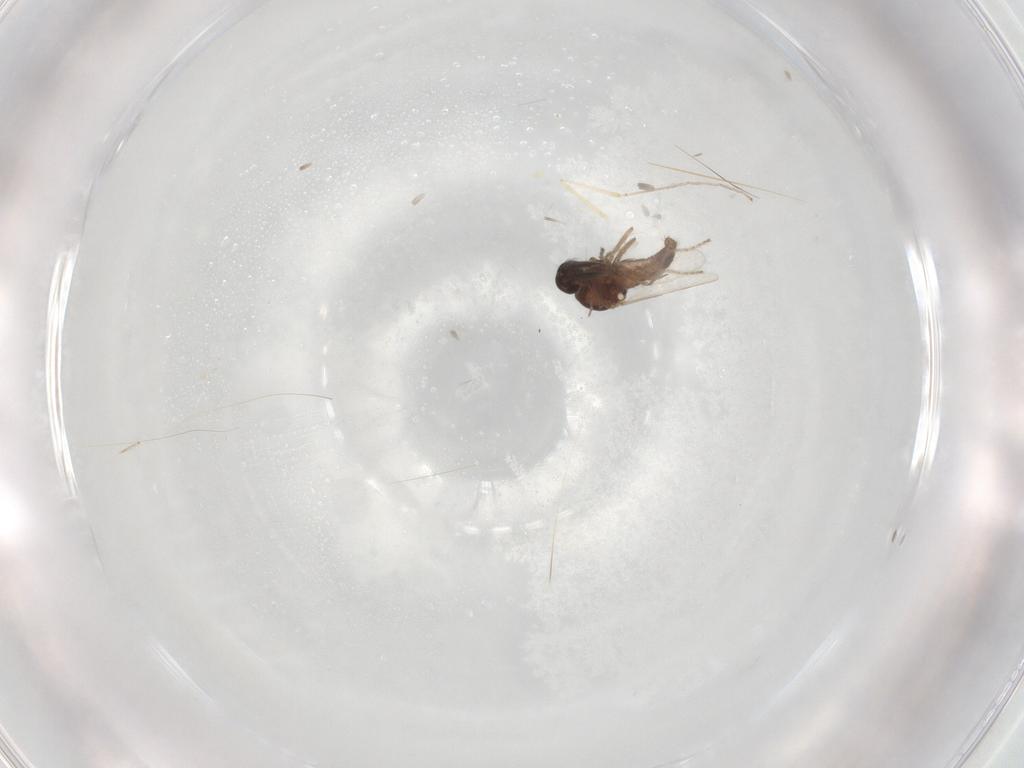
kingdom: Animalia
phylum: Arthropoda
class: Insecta
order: Diptera
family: Ceratopogonidae
